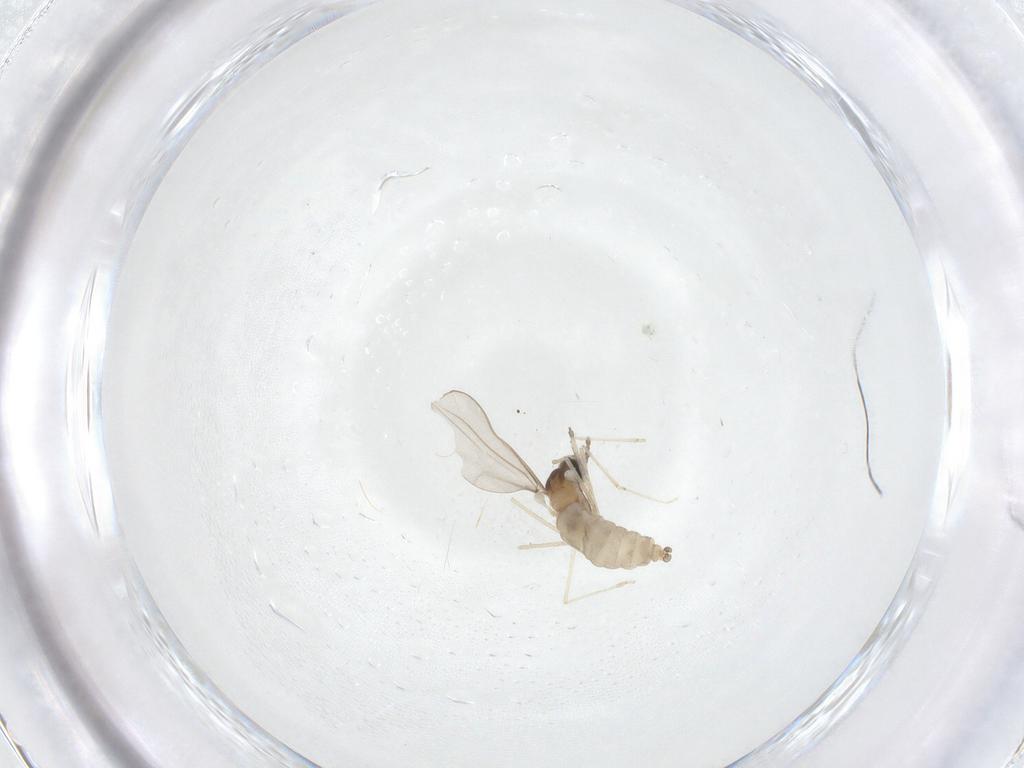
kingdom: Animalia
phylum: Arthropoda
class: Insecta
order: Diptera
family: Cecidomyiidae
